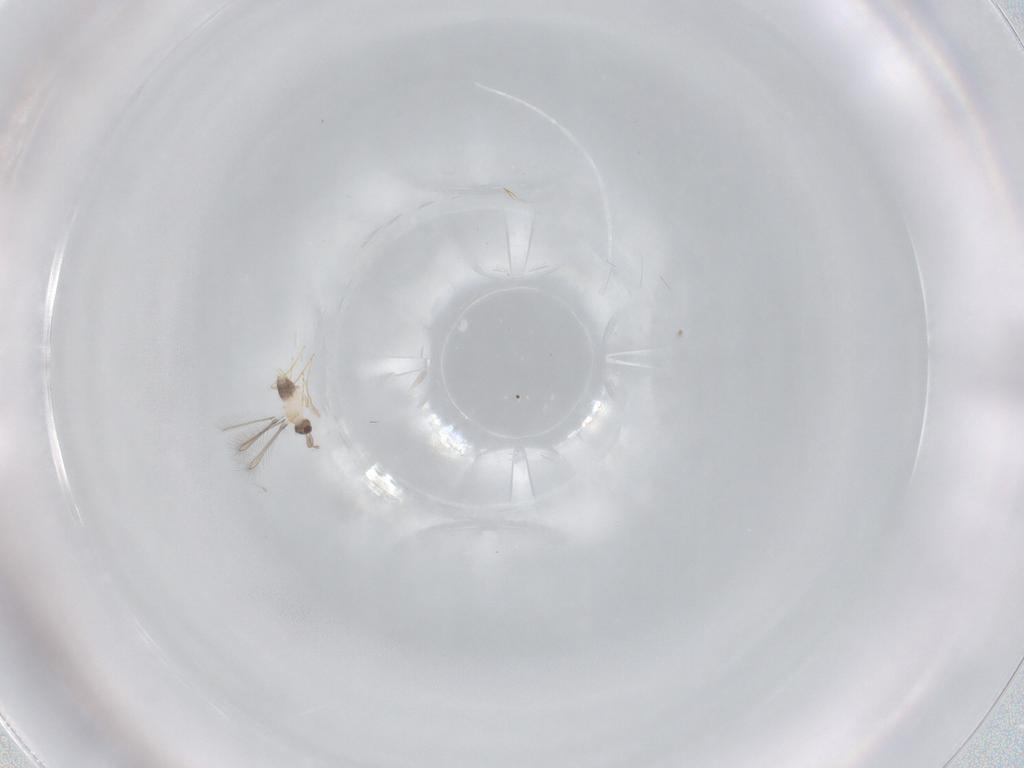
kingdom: Animalia
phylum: Arthropoda
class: Insecta
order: Hymenoptera
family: Mymaridae
